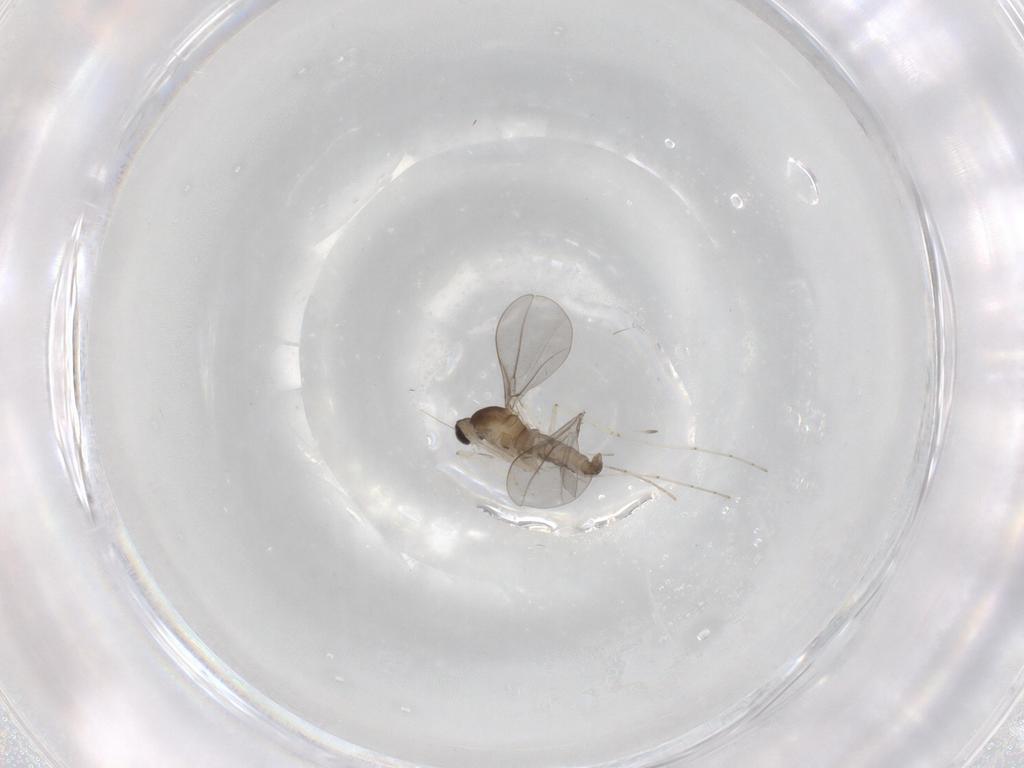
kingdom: Animalia
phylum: Arthropoda
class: Insecta
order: Diptera
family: Cecidomyiidae
